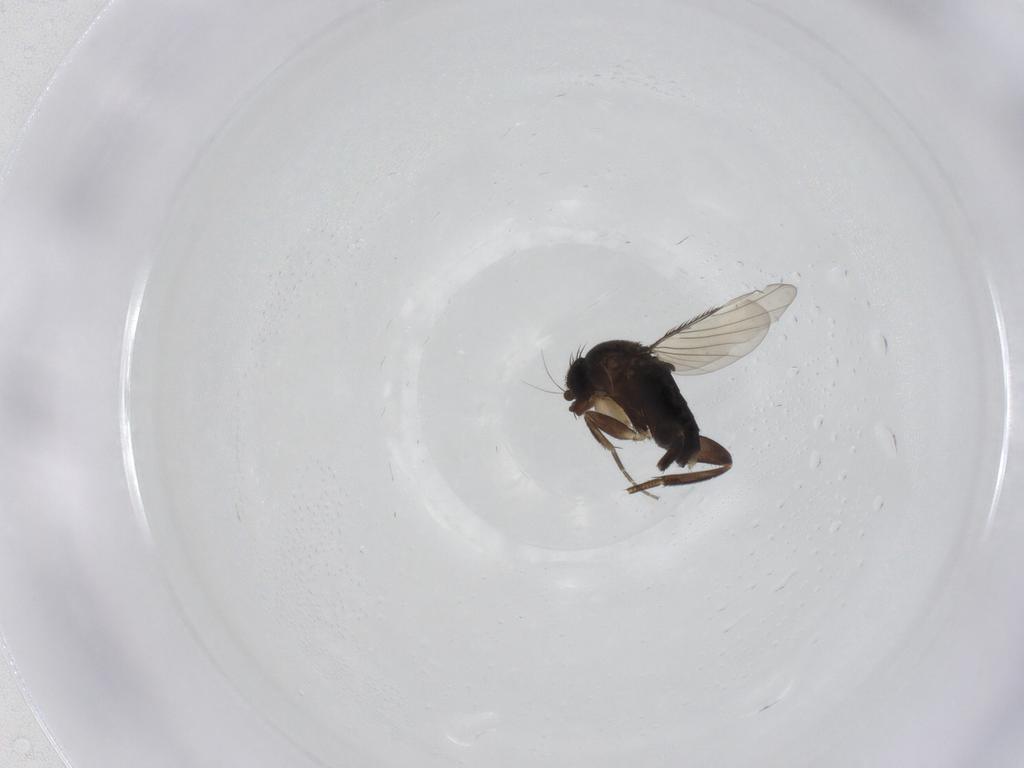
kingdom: Animalia
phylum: Arthropoda
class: Insecta
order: Diptera
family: Phoridae
